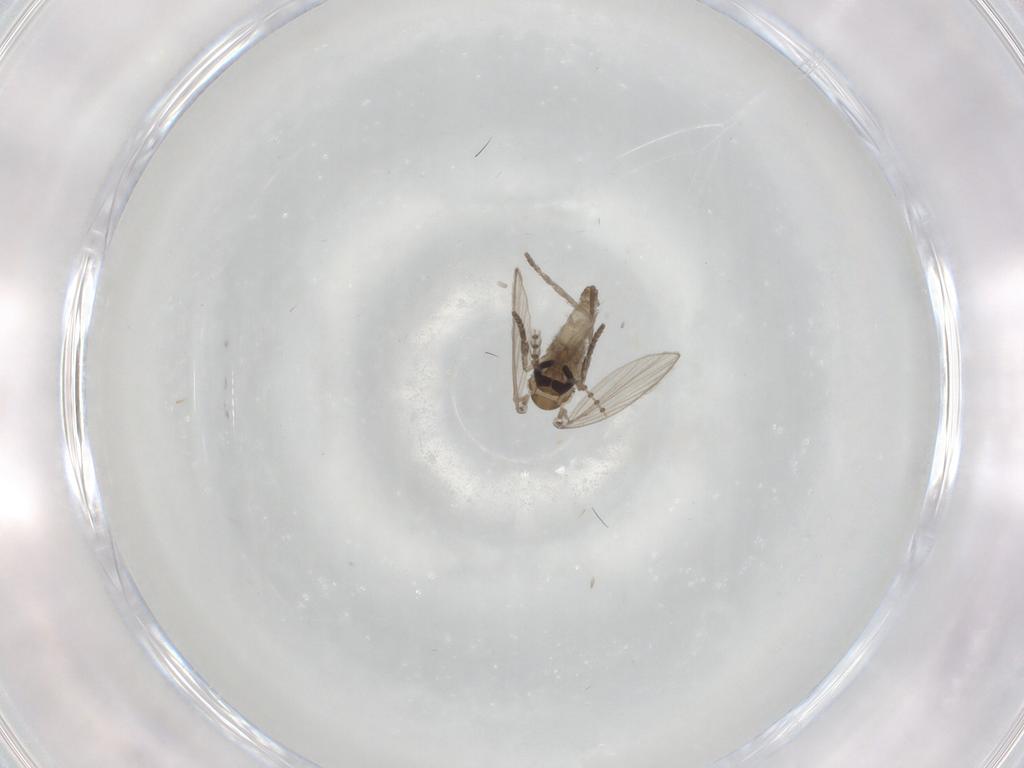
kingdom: Animalia
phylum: Arthropoda
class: Insecta
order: Diptera
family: Psychodidae
